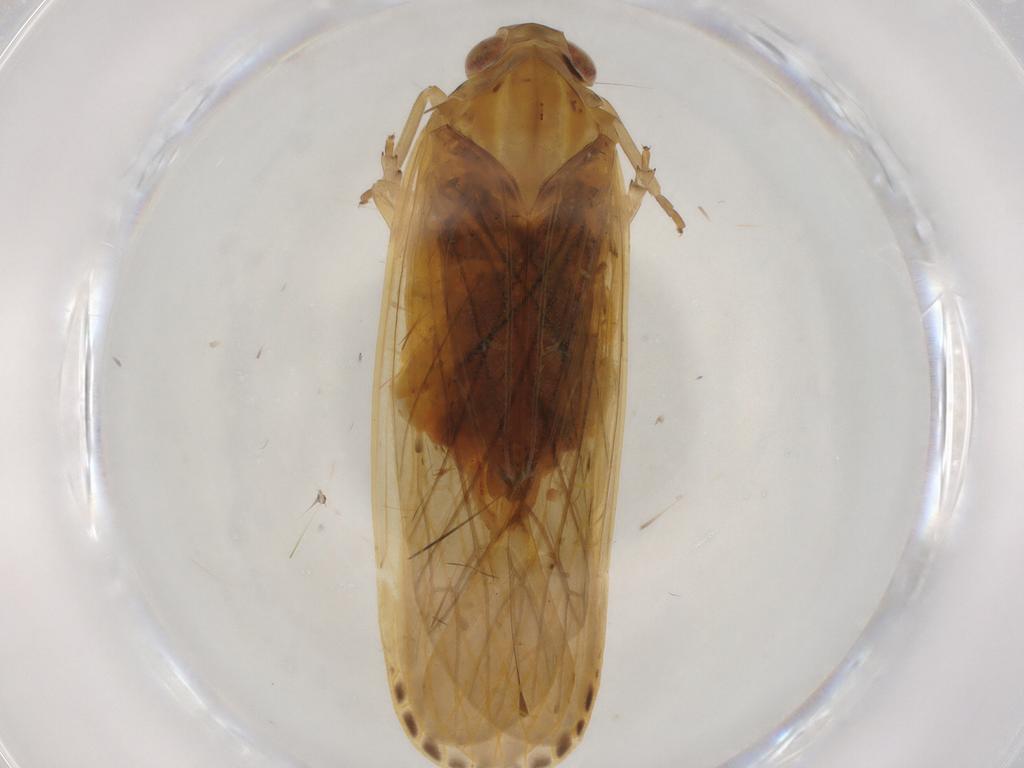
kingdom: Animalia
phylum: Arthropoda
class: Insecta
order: Hemiptera
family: Achilidae
